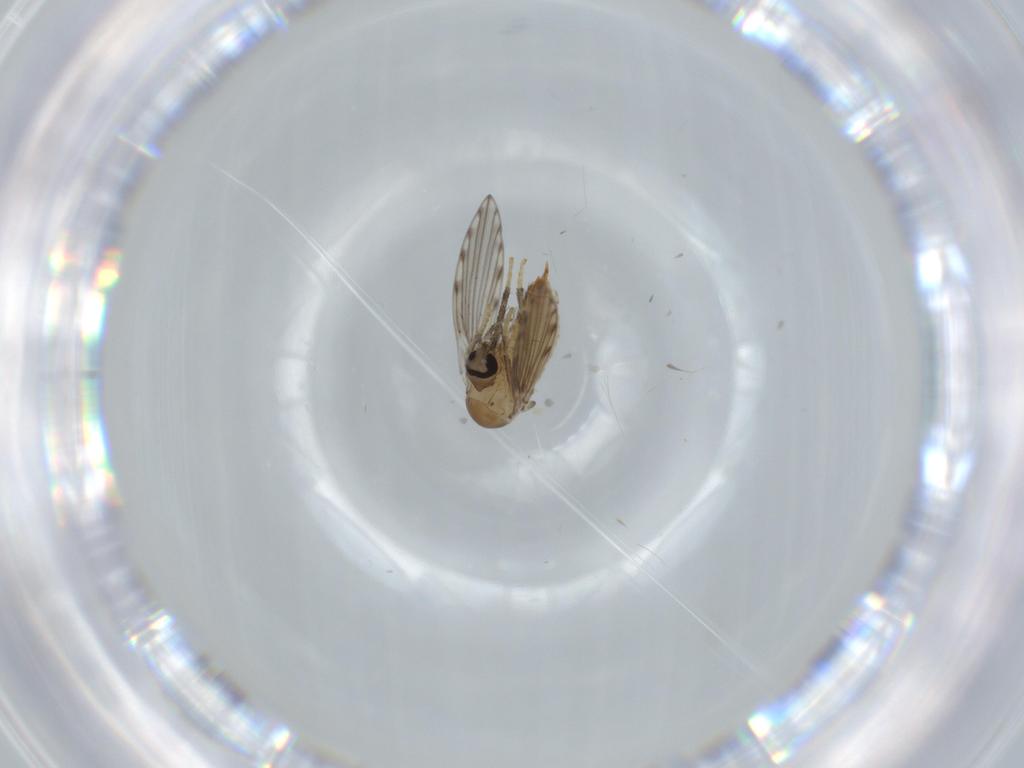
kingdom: Animalia
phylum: Arthropoda
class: Insecta
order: Diptera
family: Psychodidae
